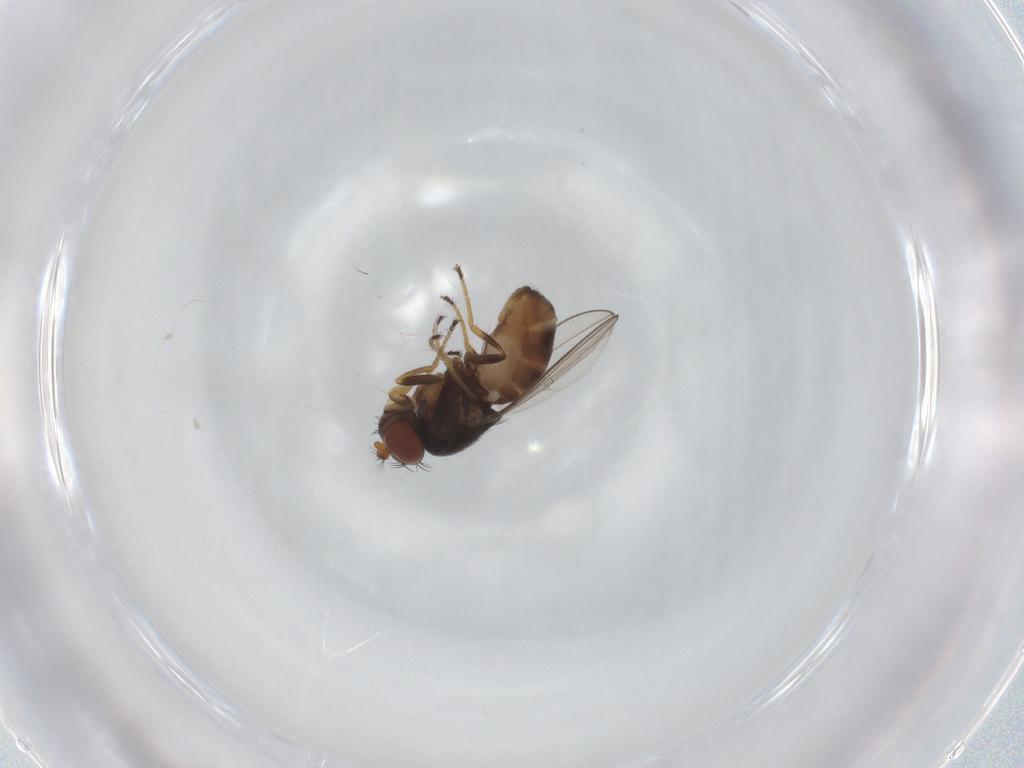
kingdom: Animalia
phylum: Arthropoda
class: Insecta
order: Diptera
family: Ephydridae
